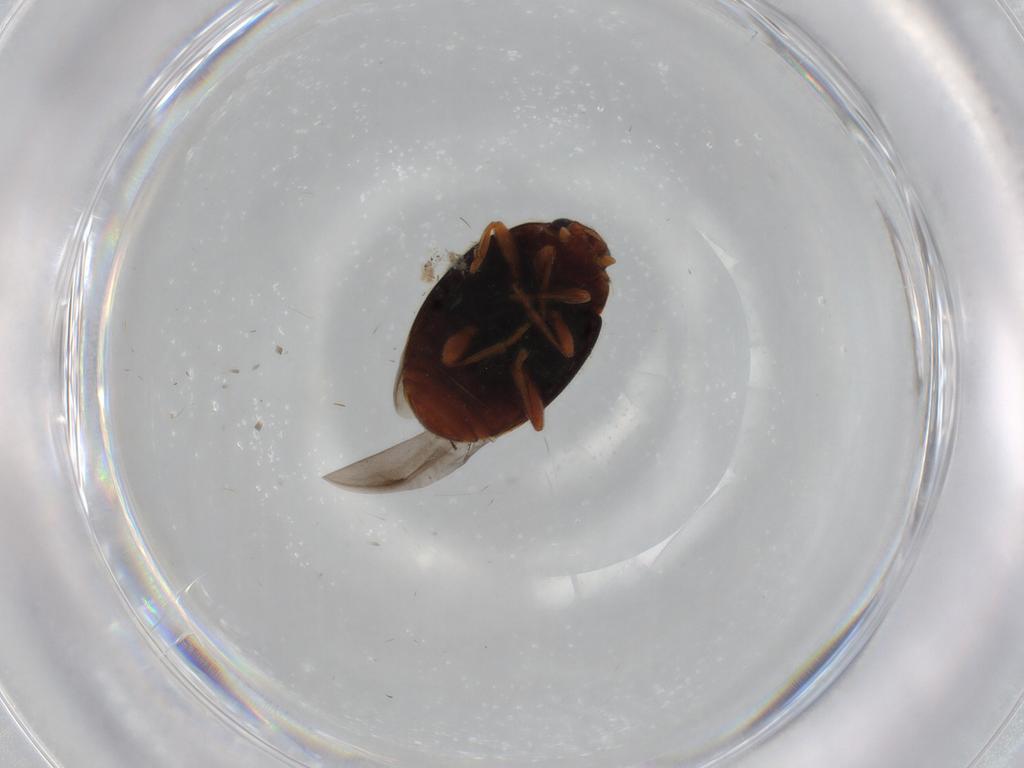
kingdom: Animalia
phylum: Arthropoda
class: Insecta
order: Coleoptera
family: Coccinellidae
